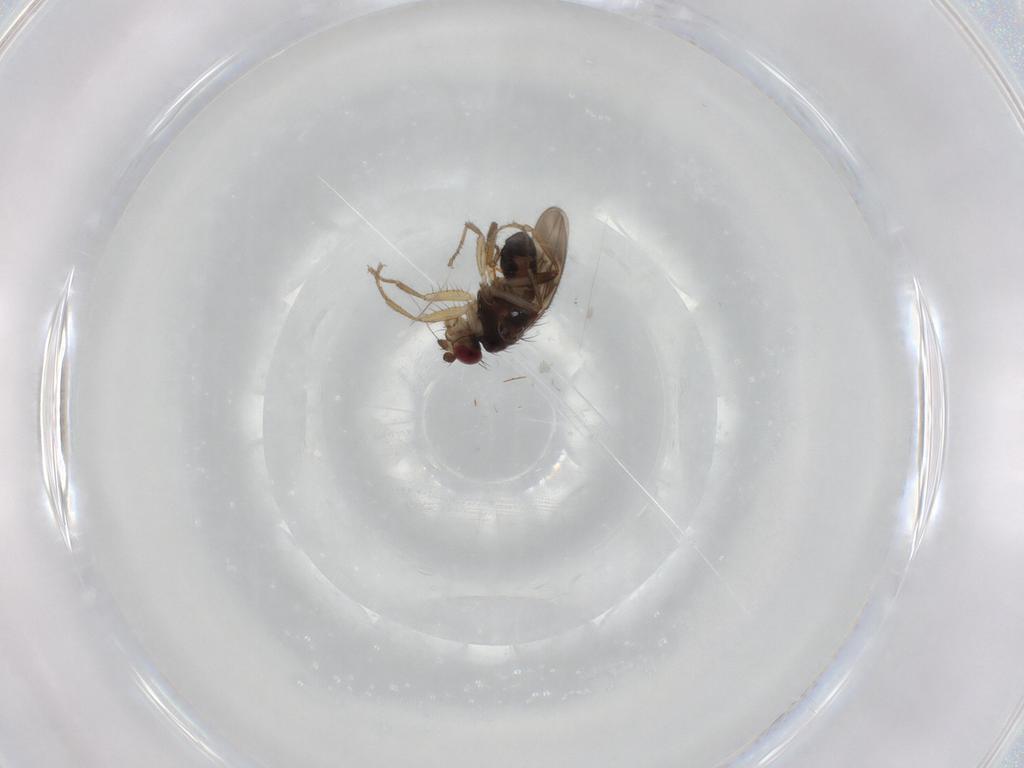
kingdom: Animalia
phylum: Arthropoda
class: Insecta
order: Diptera
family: Sphaeroceridae
